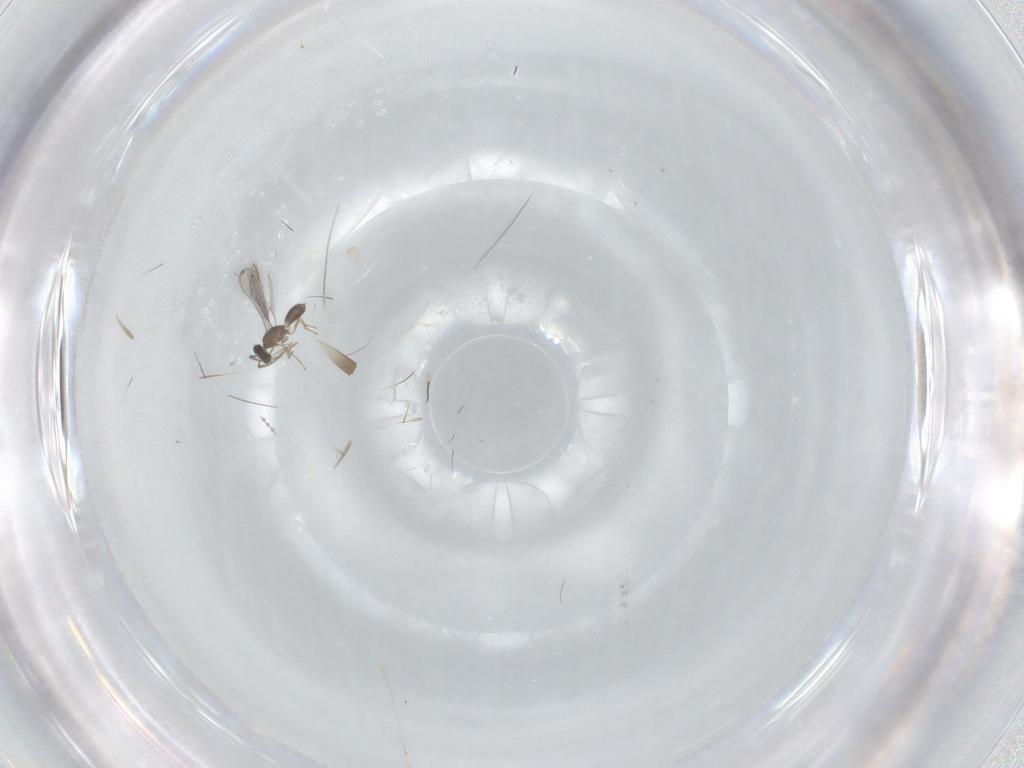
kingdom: Animalia
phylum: Arthropoda
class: Insecta
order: Hymenoptera
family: Eulophidae
